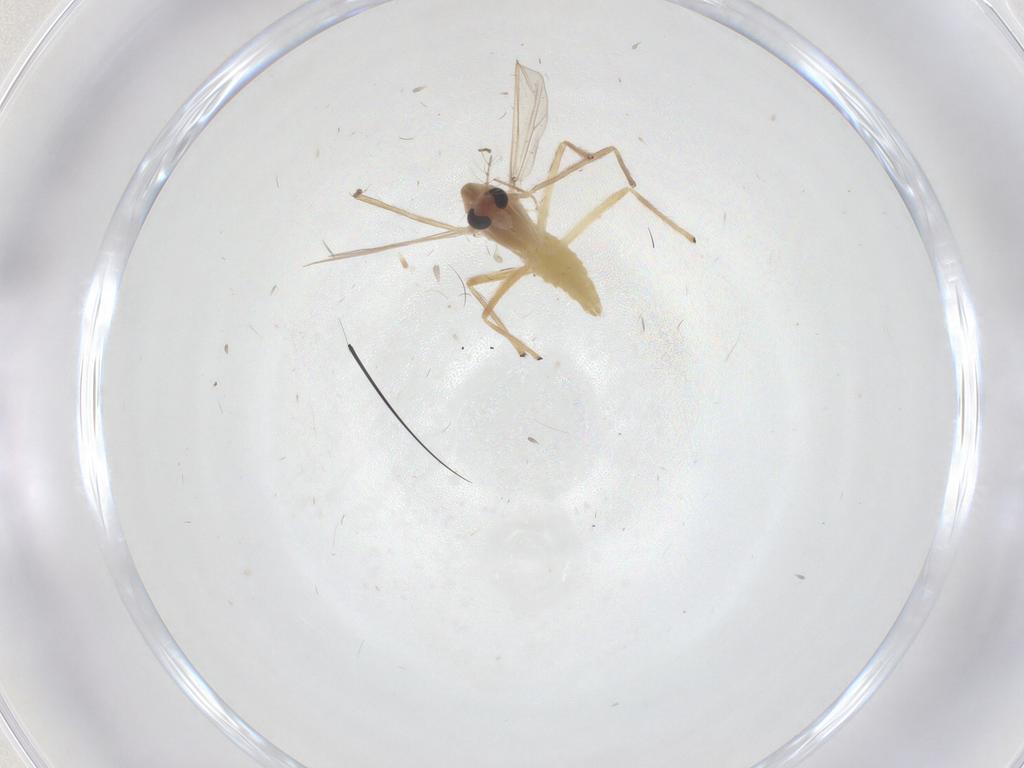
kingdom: Animalia
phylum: Arthropoda
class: Insecta
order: Diptera
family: Chironomidae
